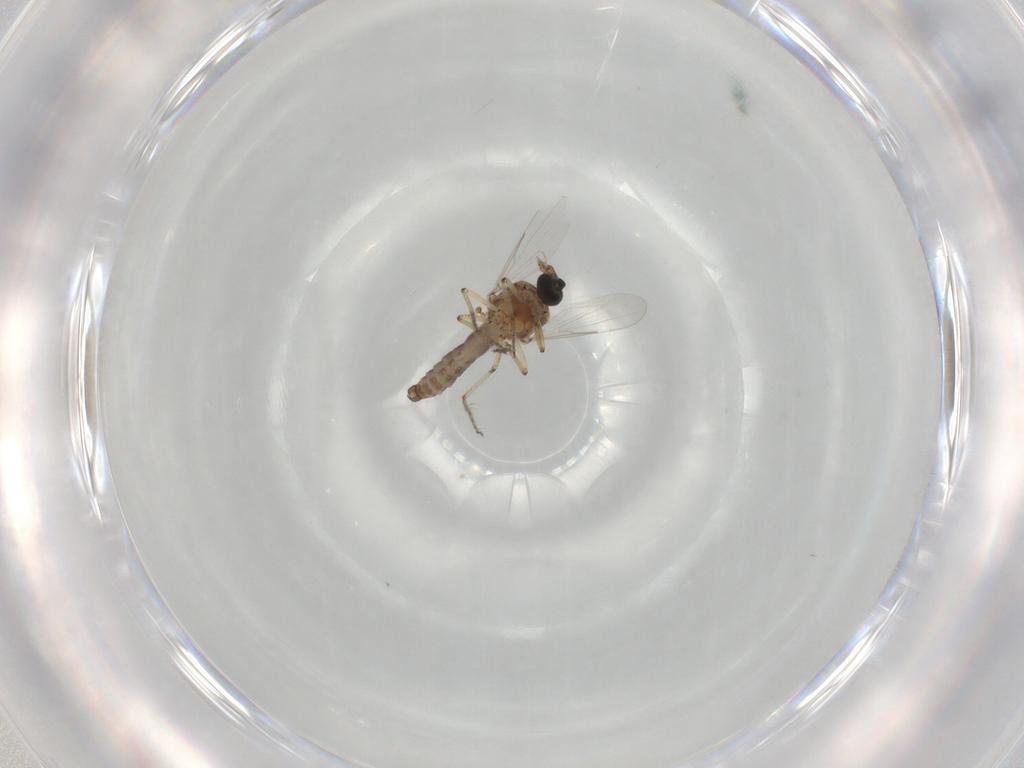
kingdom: Animalia
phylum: Arthropoda
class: Insecta
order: Diptera
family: Ceratopogonidae
